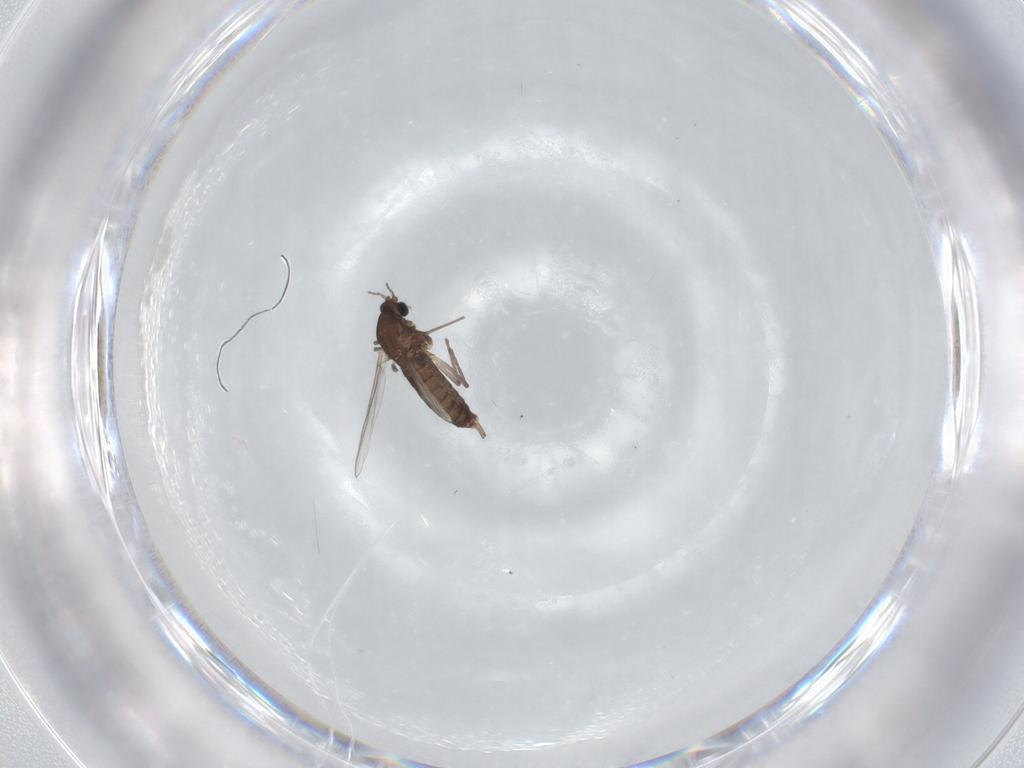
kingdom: Animalia
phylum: Arthropoda
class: Insecta
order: Diptera
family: Chironomidae
